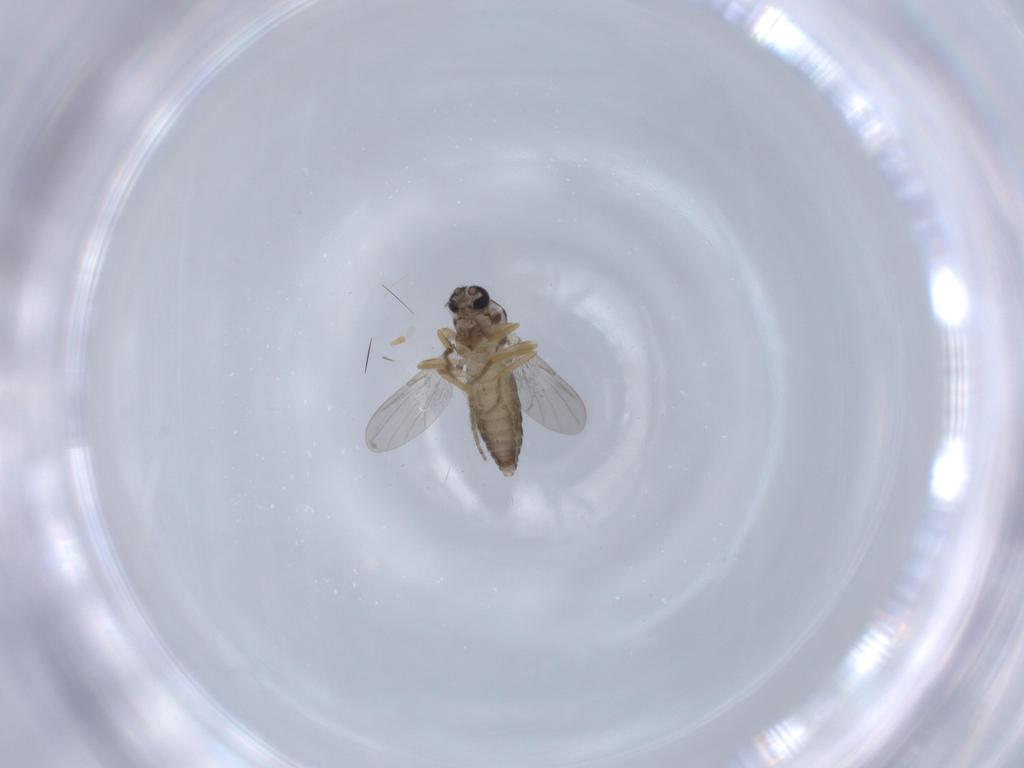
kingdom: Animalia
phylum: Arthropoda
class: Insecta
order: Diptera
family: Ceratopogonidae
